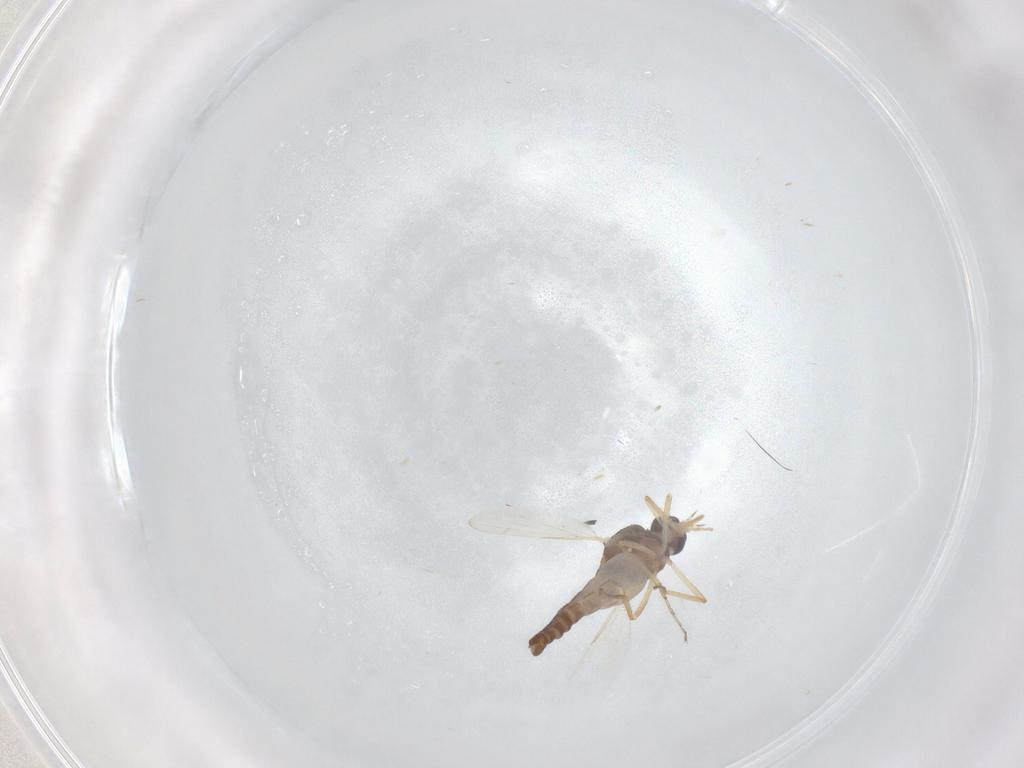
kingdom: Animalia
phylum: Arthropoda
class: Insecta
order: Diptera
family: Ceratopogonidae
